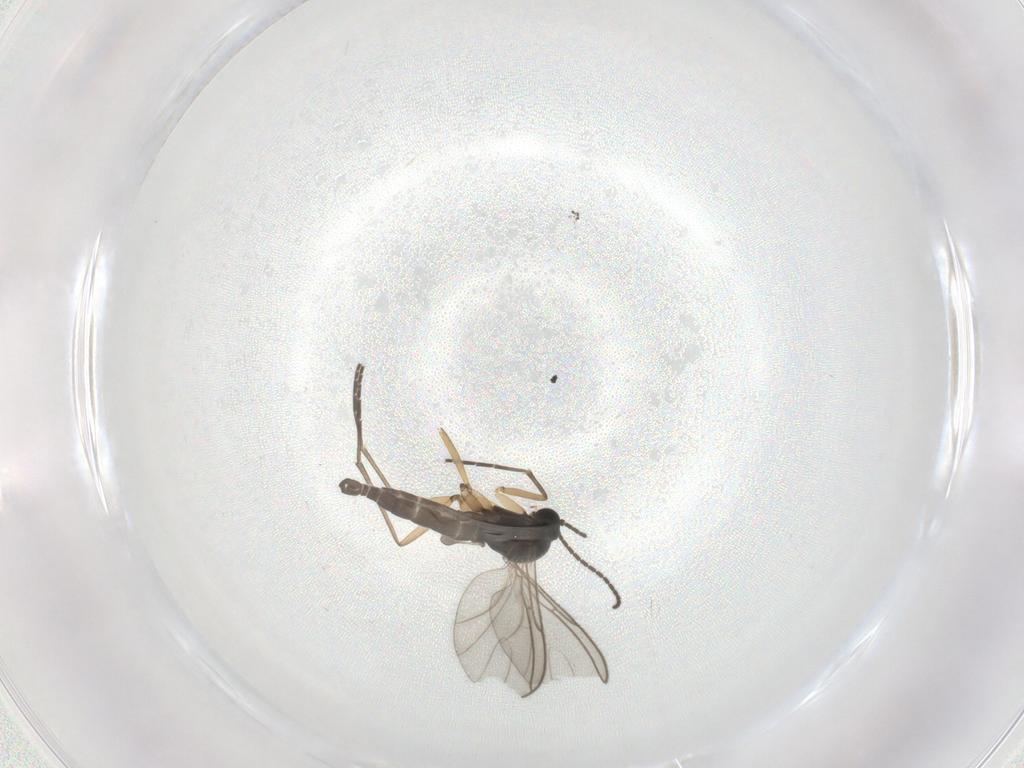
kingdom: Animalia
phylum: Arthropoda
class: Insecta
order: Diptera
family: Sciaridae
